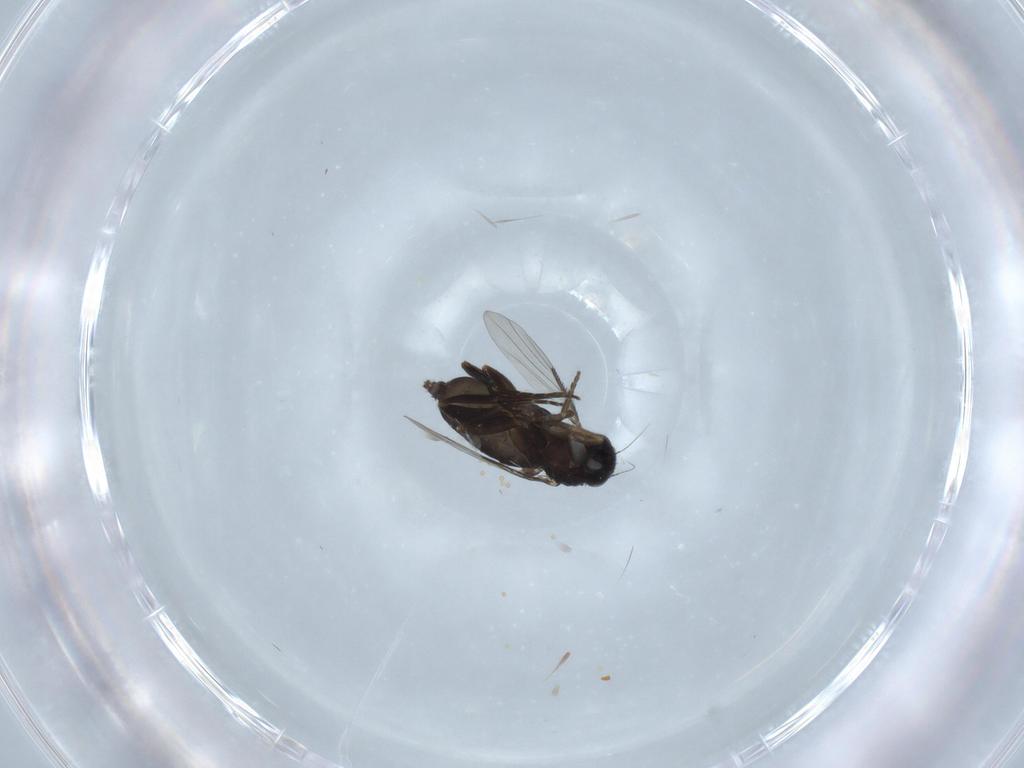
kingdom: Animalia
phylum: Arthropoda
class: Insecta
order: Diptera
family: Phoridae
